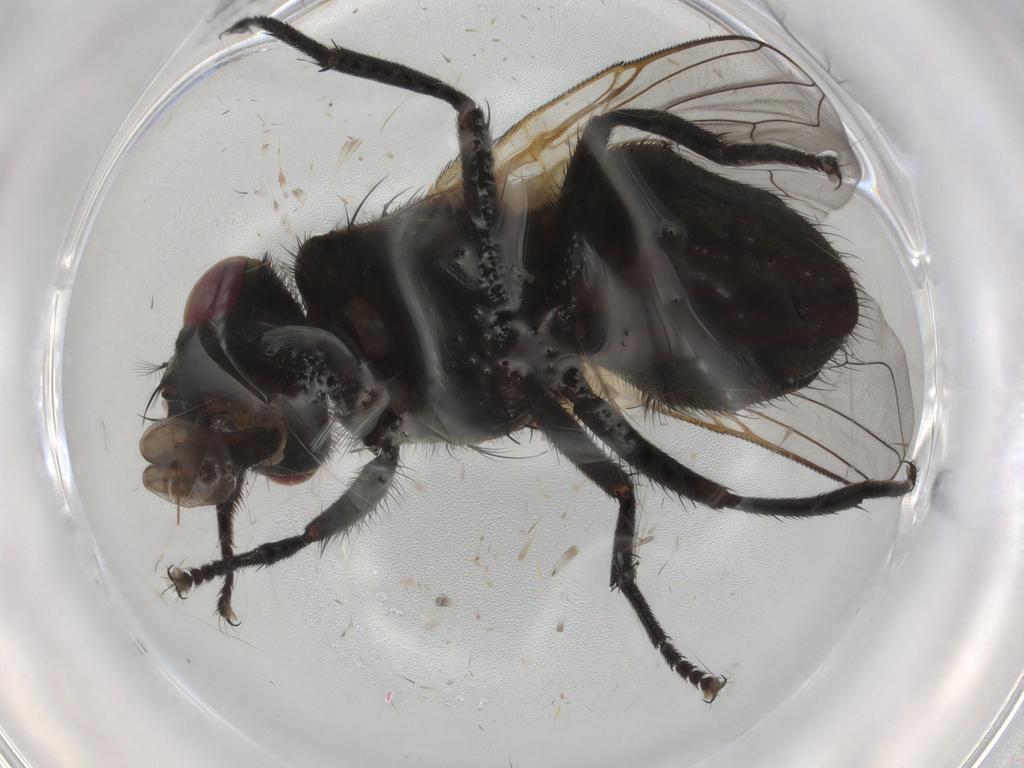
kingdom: Animalia
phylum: Arthropoda
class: Insecta
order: Diptera
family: Muscidae
